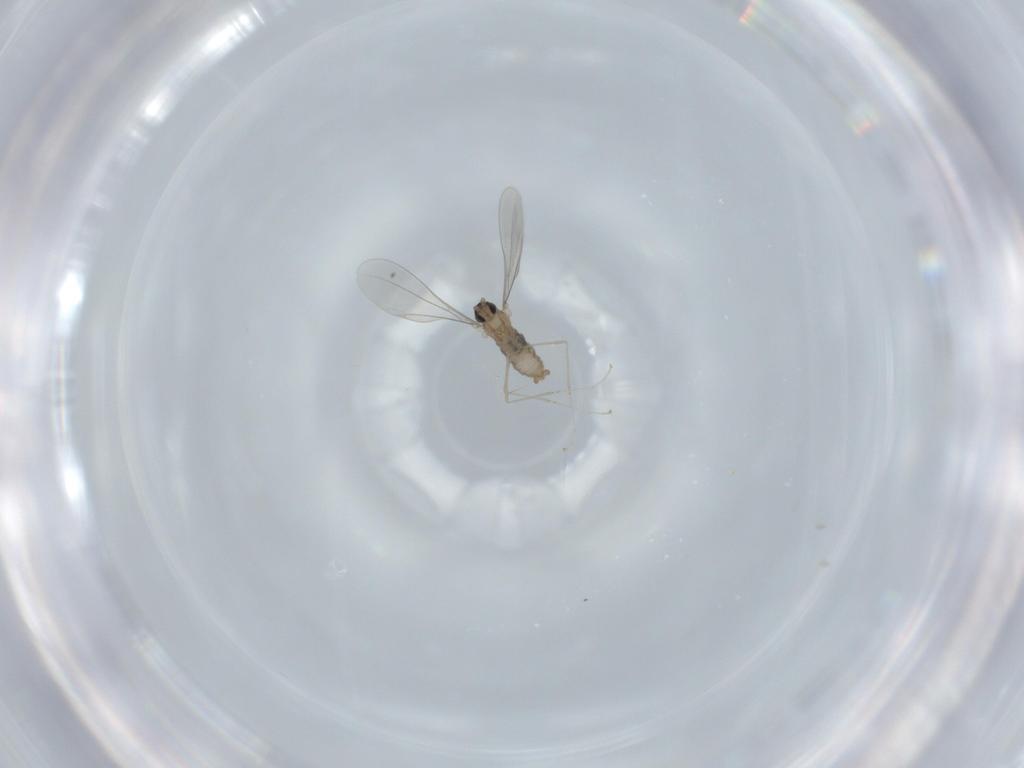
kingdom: Animalia
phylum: Arthropoda
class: Insecta
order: Diptera
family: Cecidomyiidae
